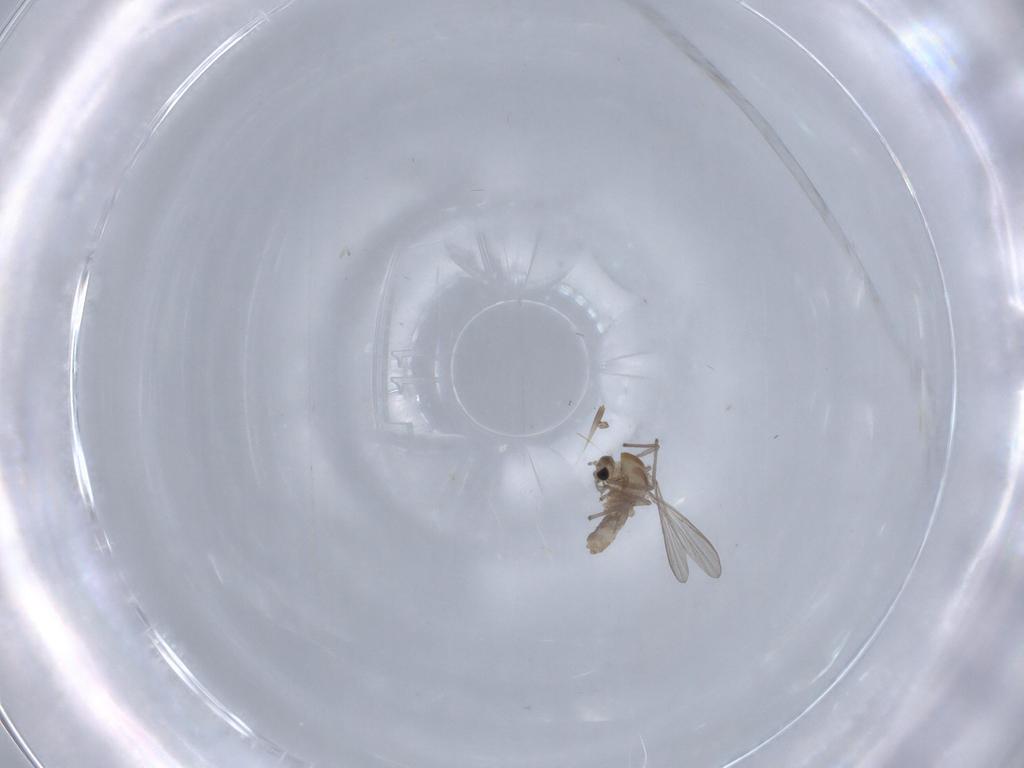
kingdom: Animalia
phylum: Arthropoda
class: Insecta
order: Diptera
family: Chironomidae
